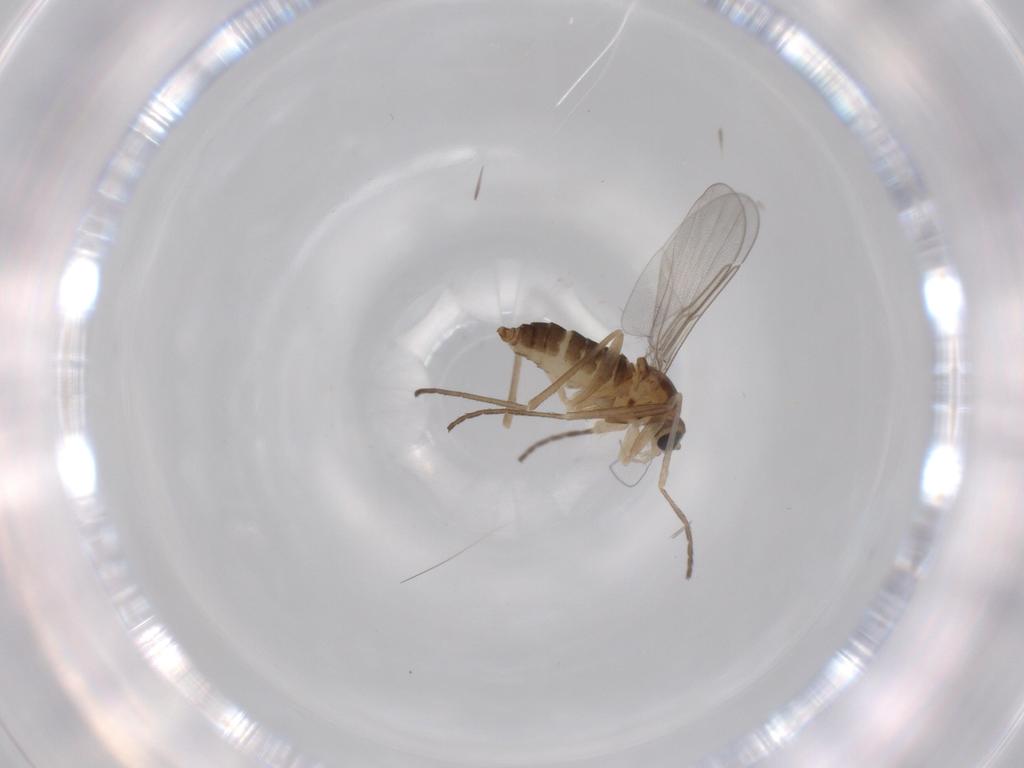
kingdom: Animalia
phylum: Arthropoda
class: Insecta
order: Diptera
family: Cecidomyiidae
